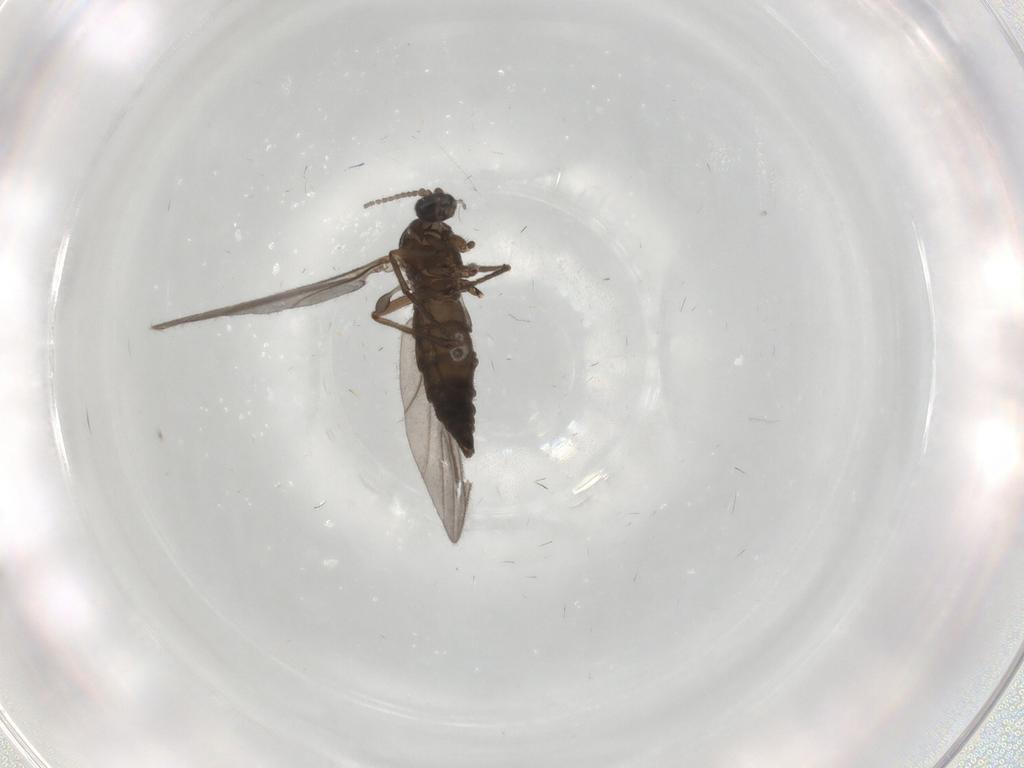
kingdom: Animalia
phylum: Arthropoda
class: Insecta
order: Diptera
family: Sciaridae
